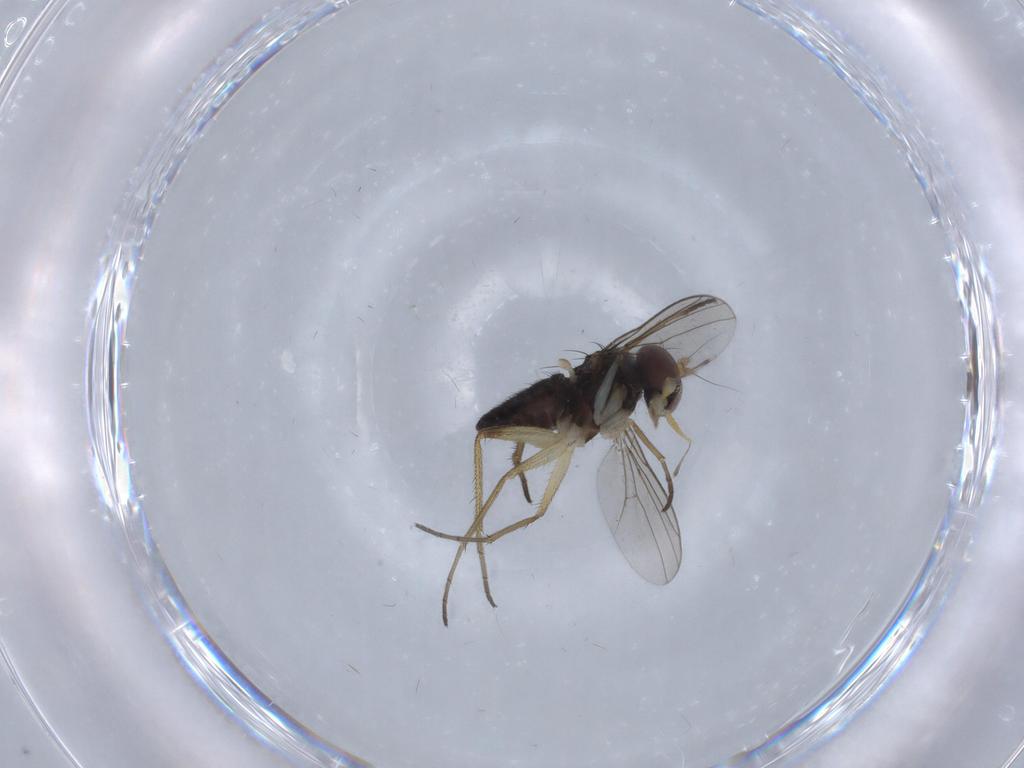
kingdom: Animalia
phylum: Arthropoda
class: Insecta
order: Diptera
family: Dolichopodidae
